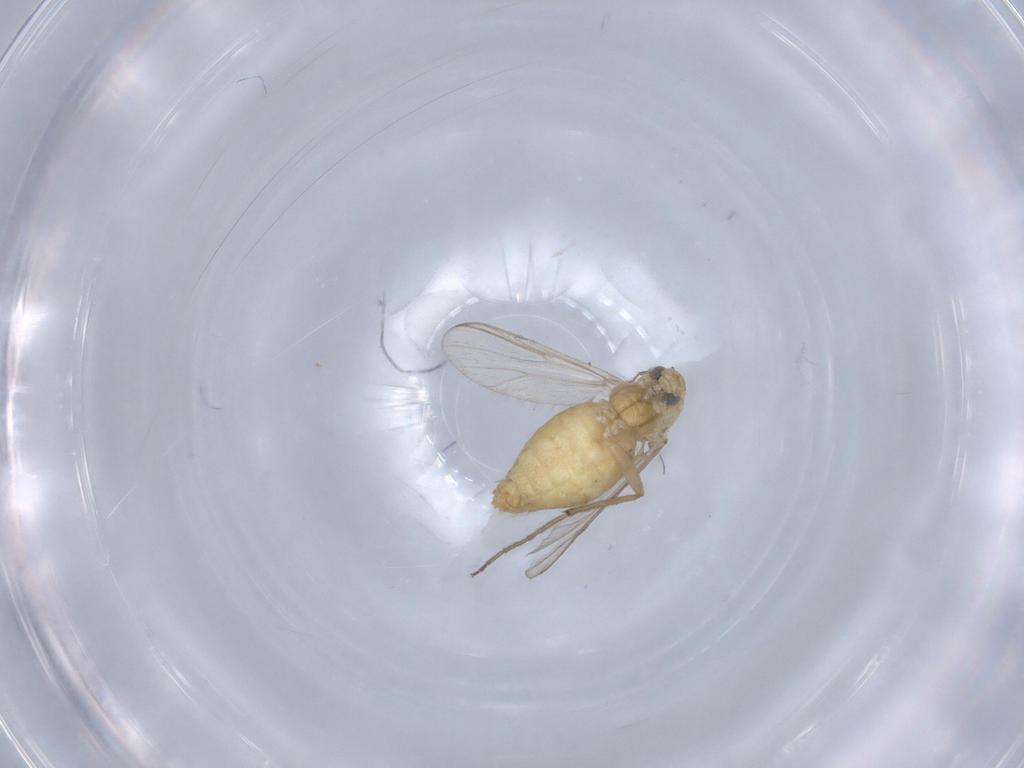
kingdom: Animalia
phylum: Arthropoda
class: Insecta
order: Diptera
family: Chironomidae
